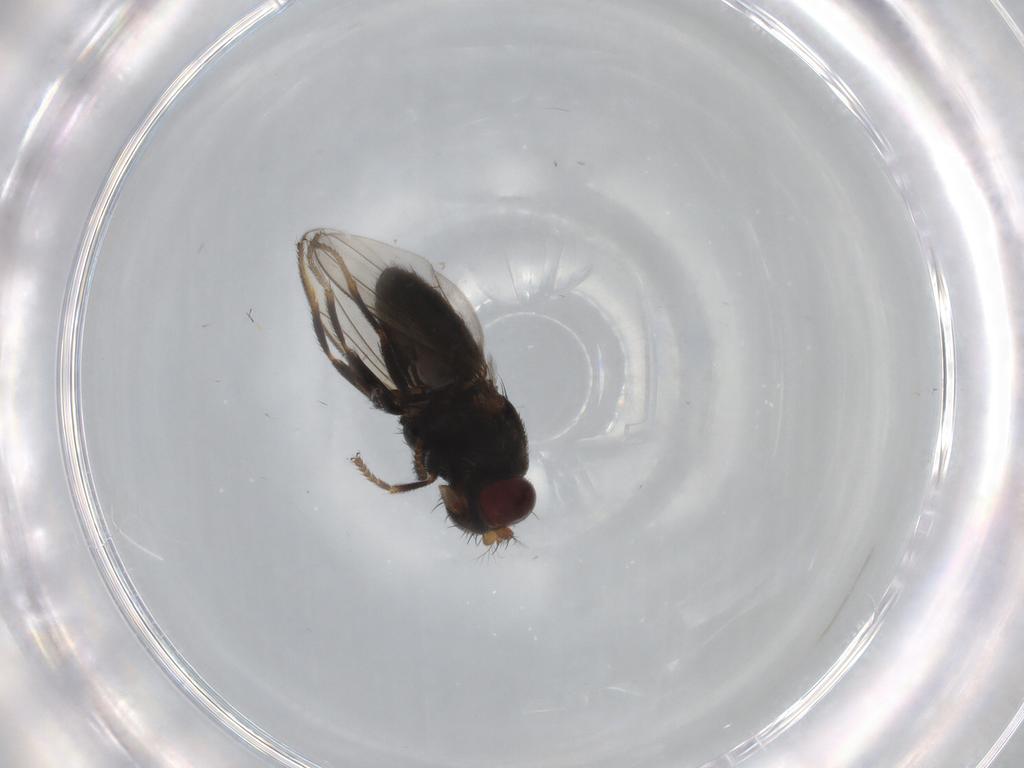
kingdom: Animalia
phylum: Arthropoda
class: Insecta
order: Diptera
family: Ephydridae
